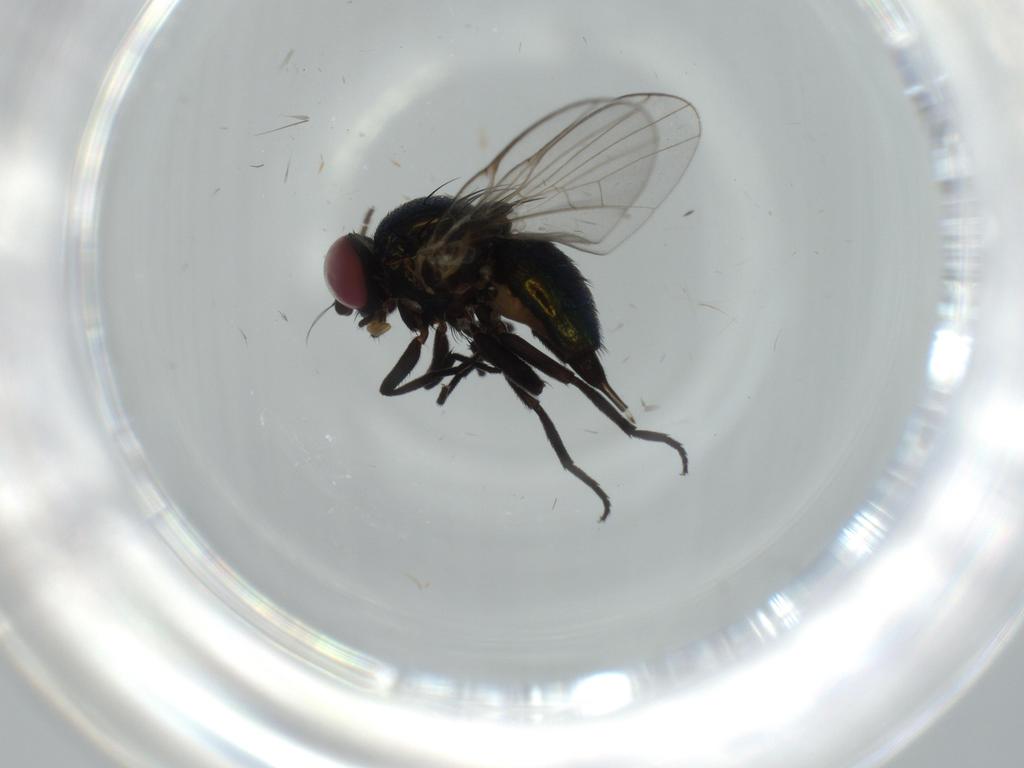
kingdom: Animalia
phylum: Arthropoda
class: Insecta
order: Diptera
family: Hybotidae
